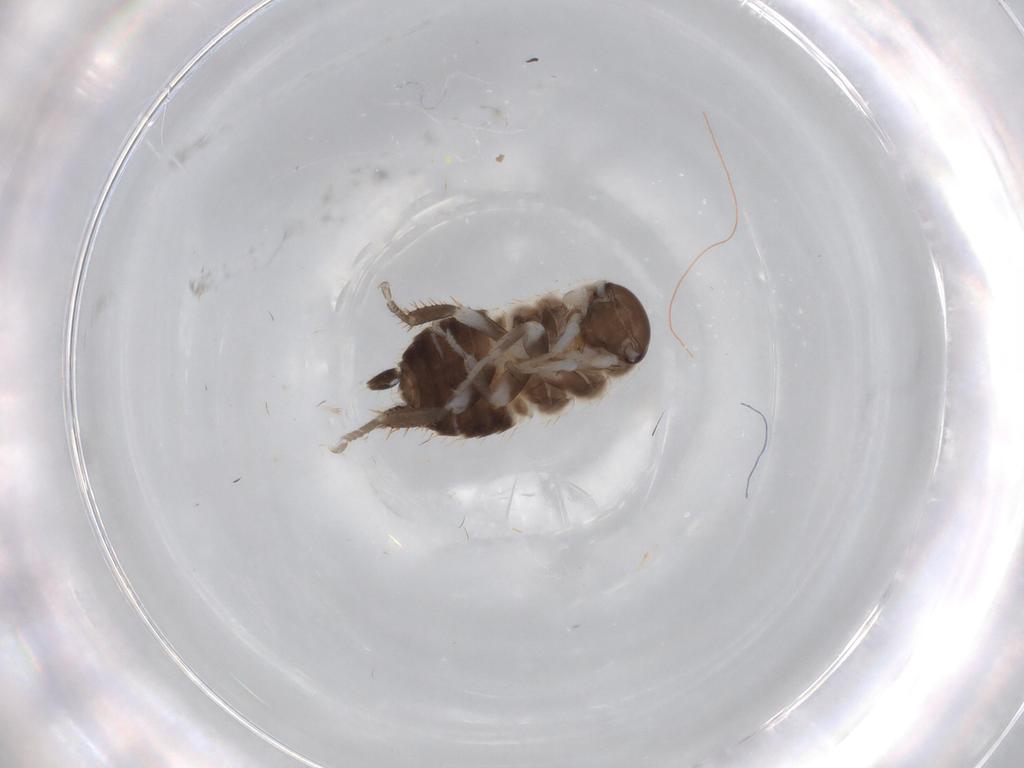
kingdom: Animalia
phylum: Arthropoda
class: Insecta
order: Blattodea
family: Ectobiidae
